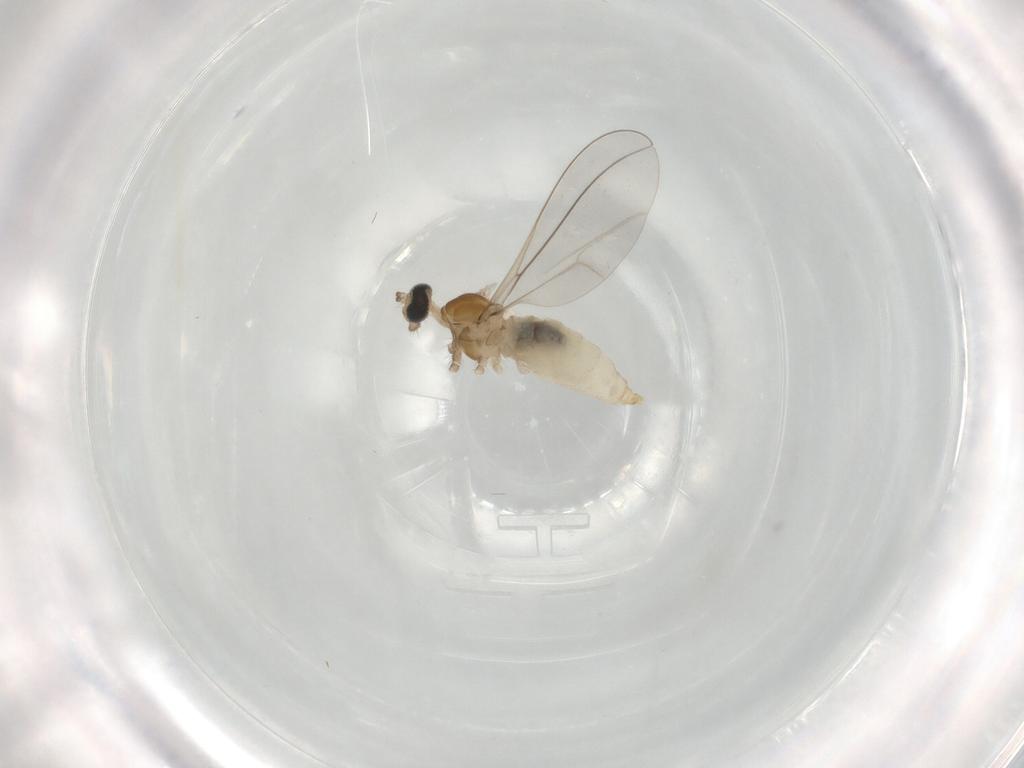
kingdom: Animalia
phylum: Arthropoda
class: Insecta
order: Diptera
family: Cecidomyiidae
